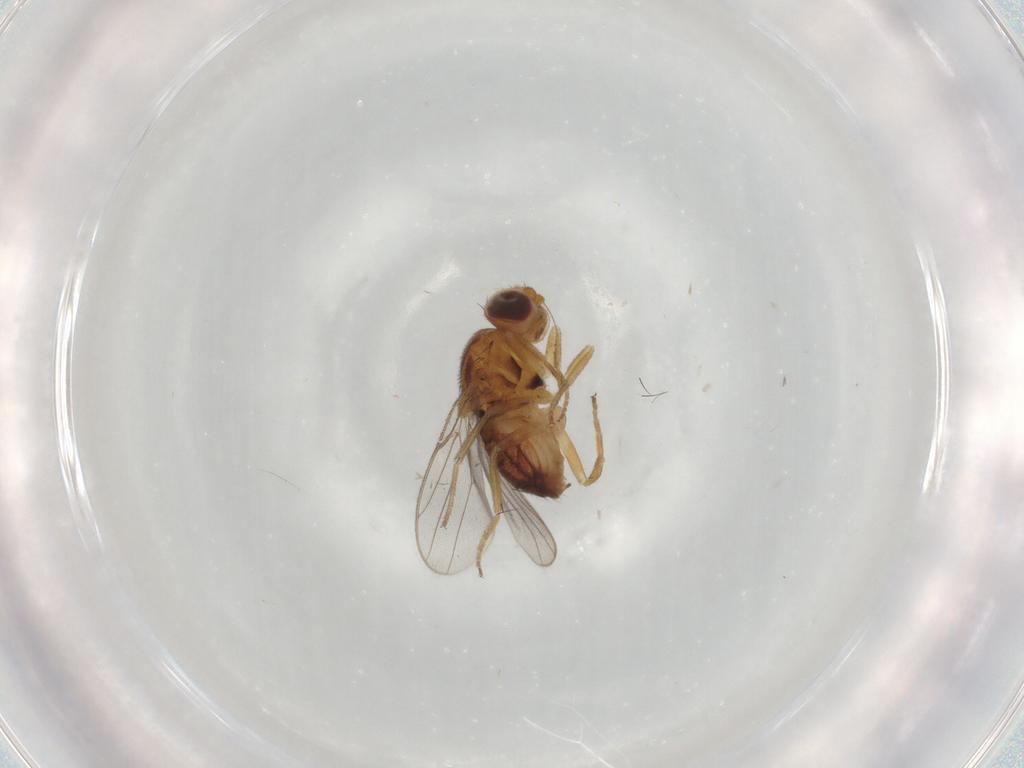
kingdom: Animalia
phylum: Arthropoda
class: Insecta
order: Diptera
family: Chloropidae
